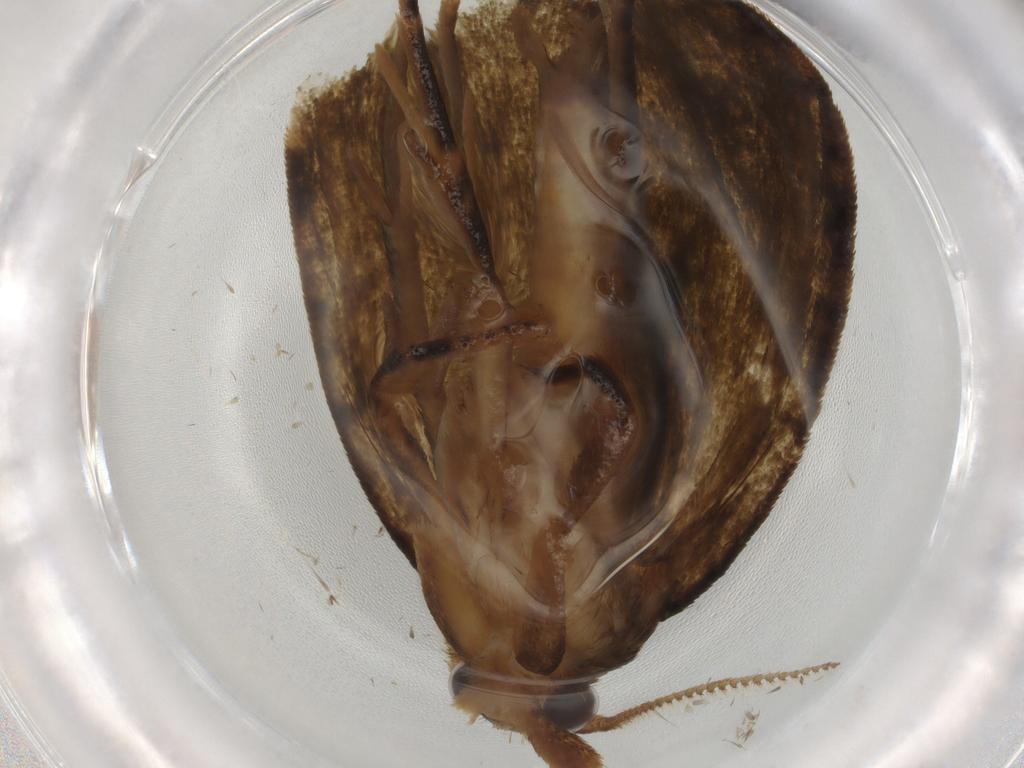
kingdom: Animalia
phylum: Arthropoda
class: Insecta
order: Lepidoptera
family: Geometridae
